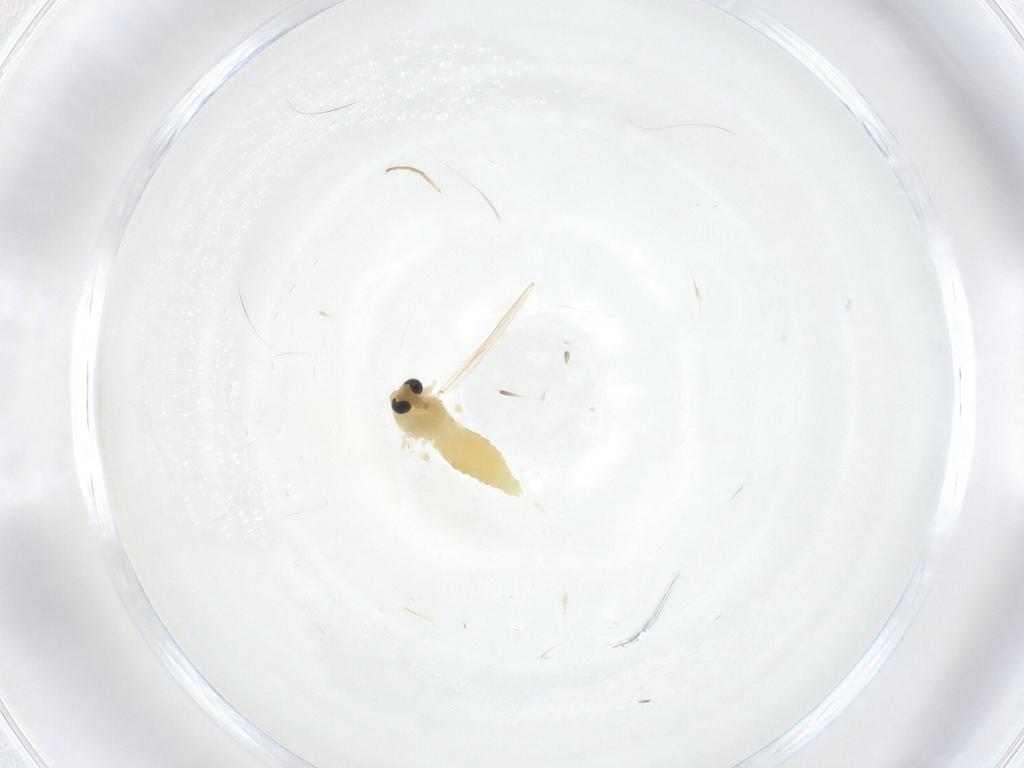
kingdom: Animalia
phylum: Arthropoda
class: Insecta
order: Diptera
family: Chironomidae
